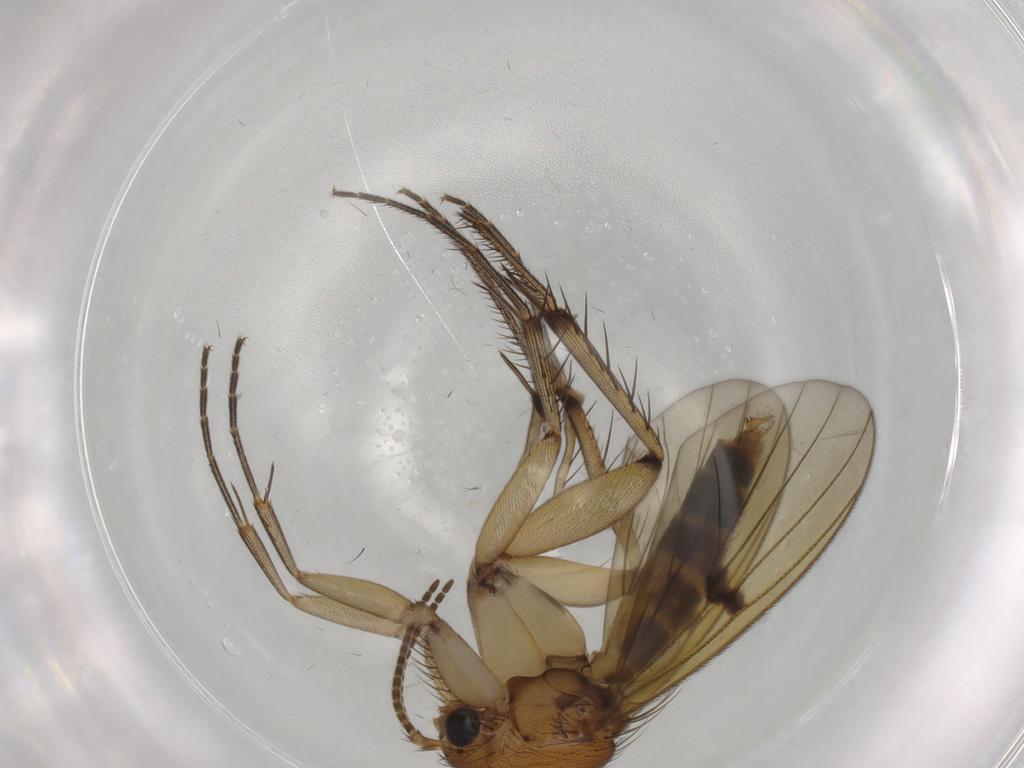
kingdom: Animalia
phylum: Arthropoda
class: Insecta
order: Diptera
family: Mycetophilidae
